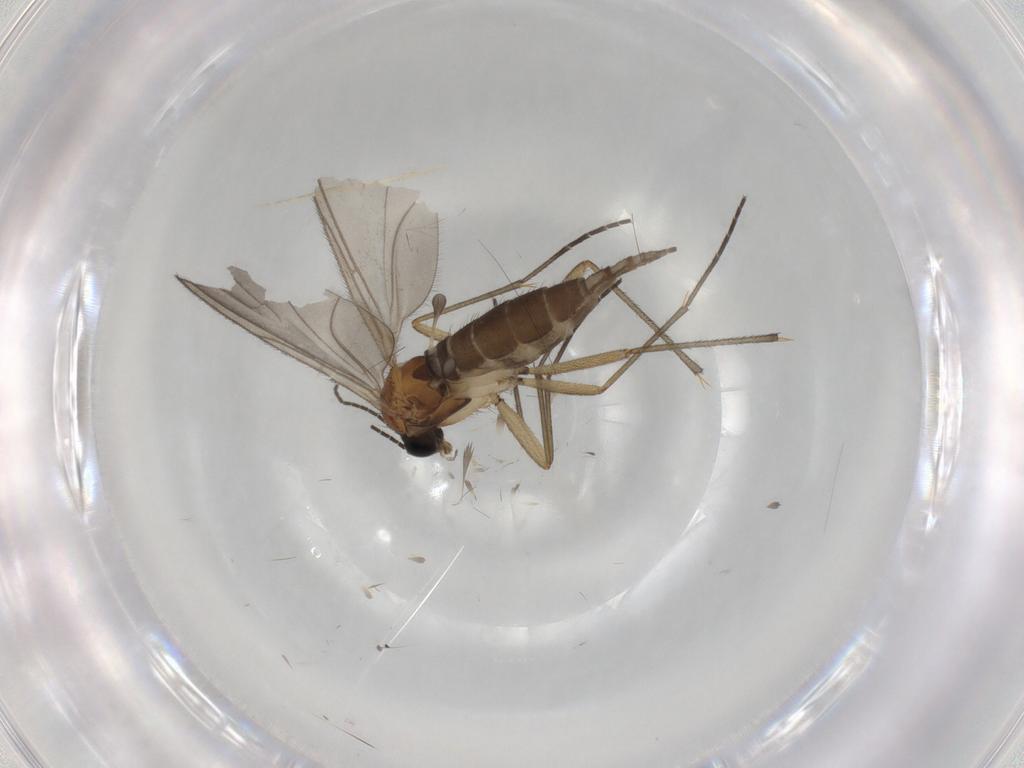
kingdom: Animalia
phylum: Arthropoda
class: Insecta
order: Diptera
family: Sciaridae
